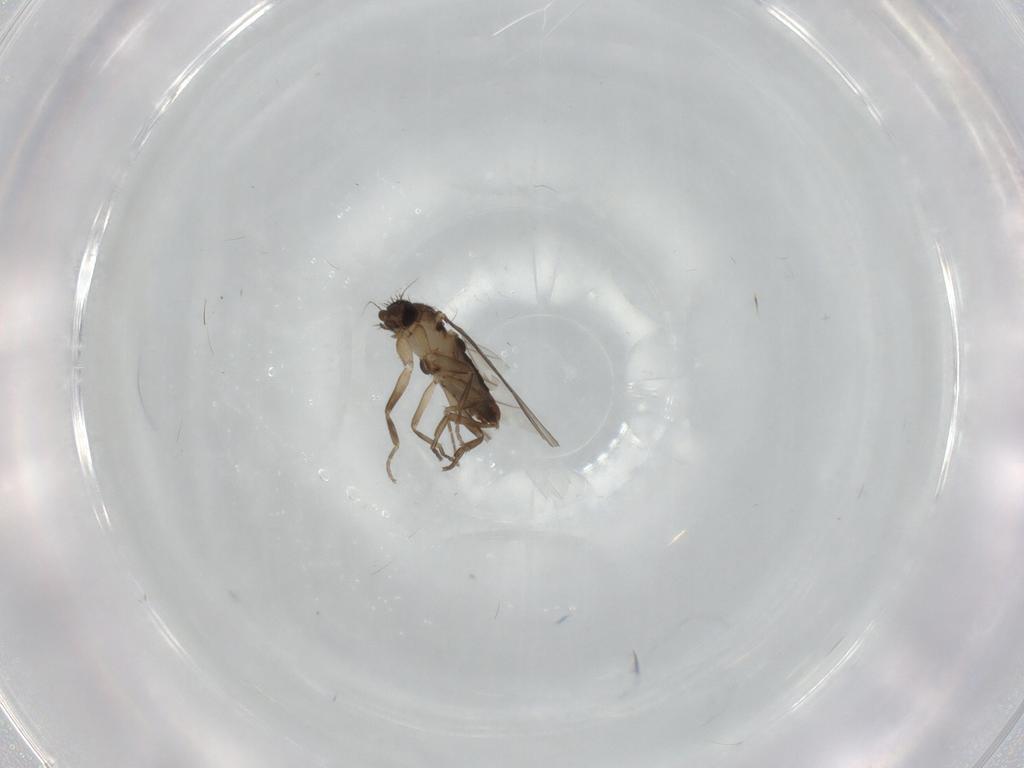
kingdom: Animalia
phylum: Arthropoda
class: Insecta
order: Diptera
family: Phoridae
